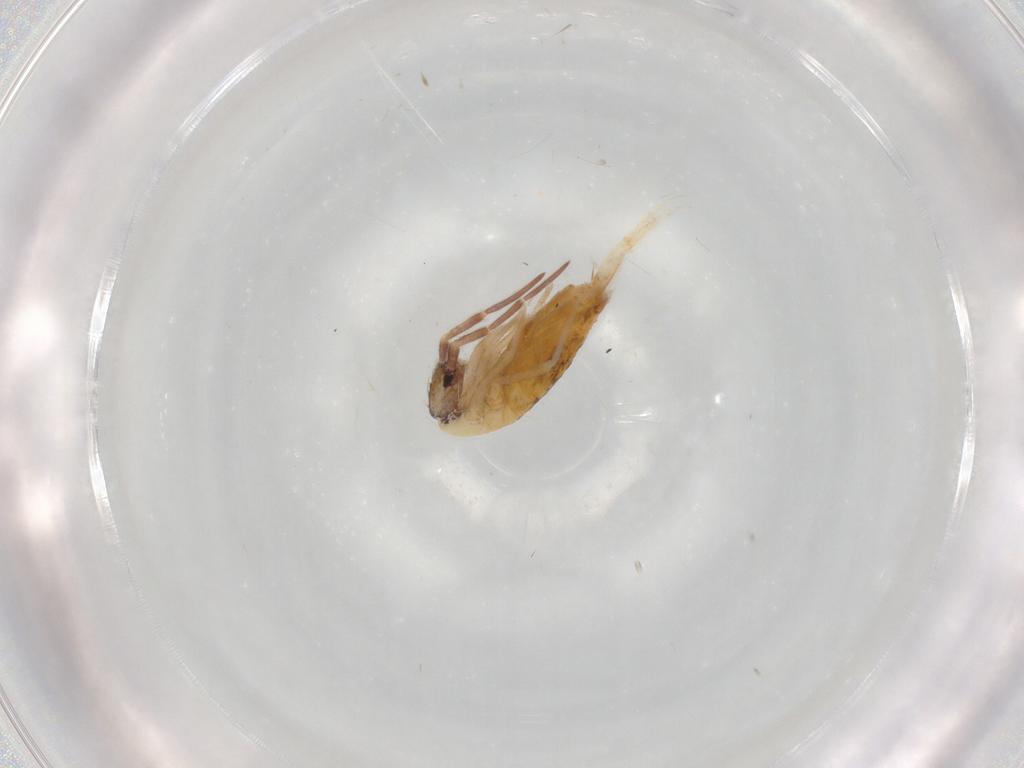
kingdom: Animalia
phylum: Arthropoda
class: Collembola
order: Entomobryomorpha
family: Entomobryidae
